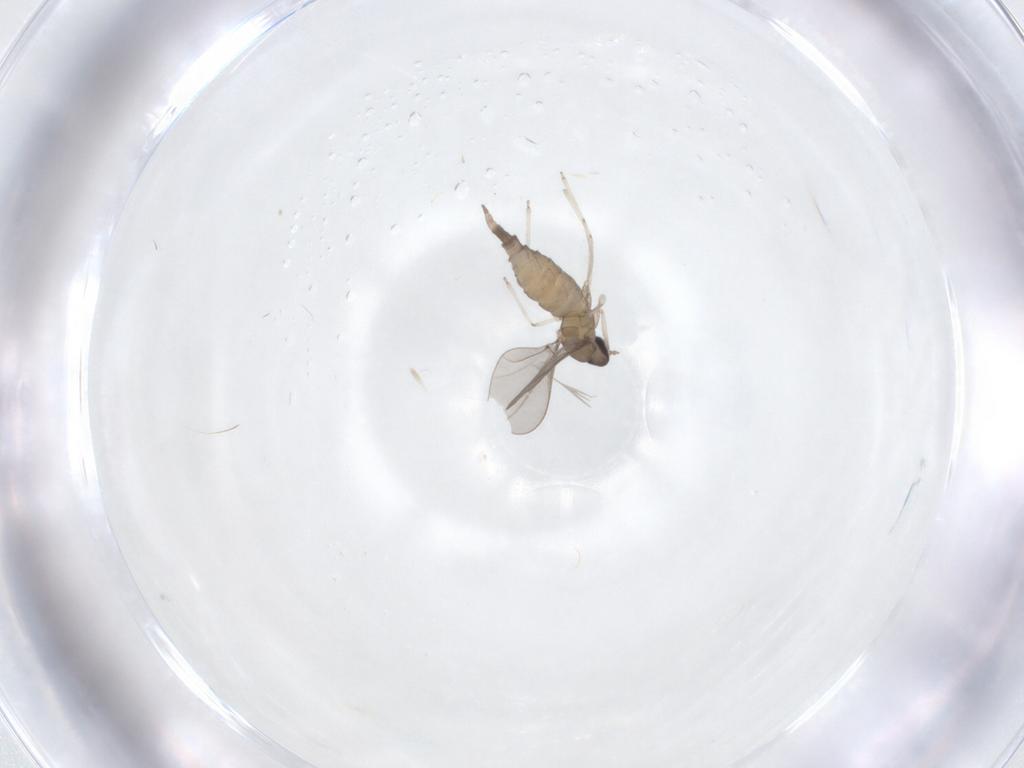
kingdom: Animalia
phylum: Arthropoda
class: Insecta
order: Diptera
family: Cecidomyiidae
